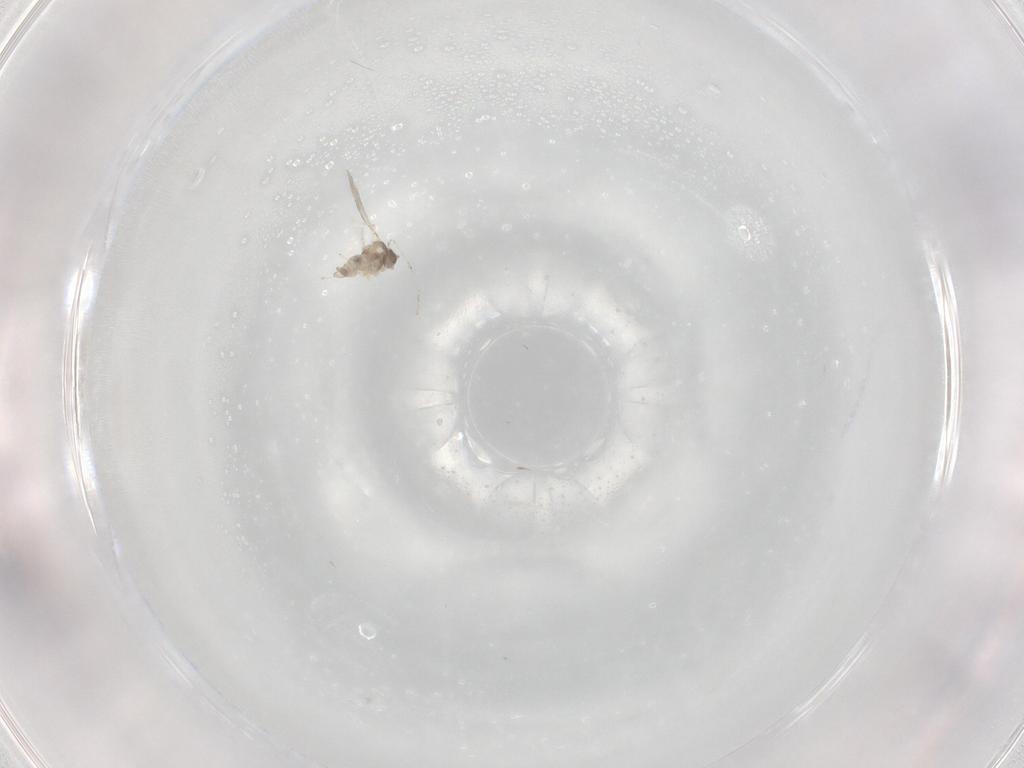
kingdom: Animalia
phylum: Arthropoda
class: Insecta
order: Diptera
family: Cecidomyiidae
